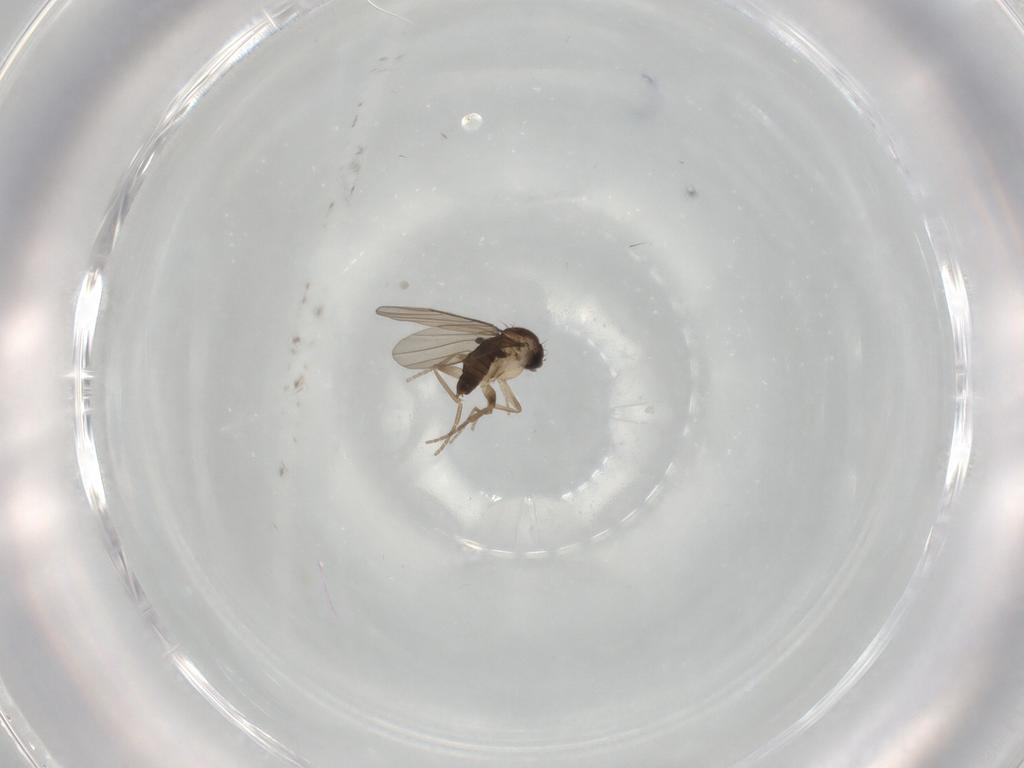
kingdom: Animalia
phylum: Arthropoda
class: Insecta
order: Diptera
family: Phoridae
